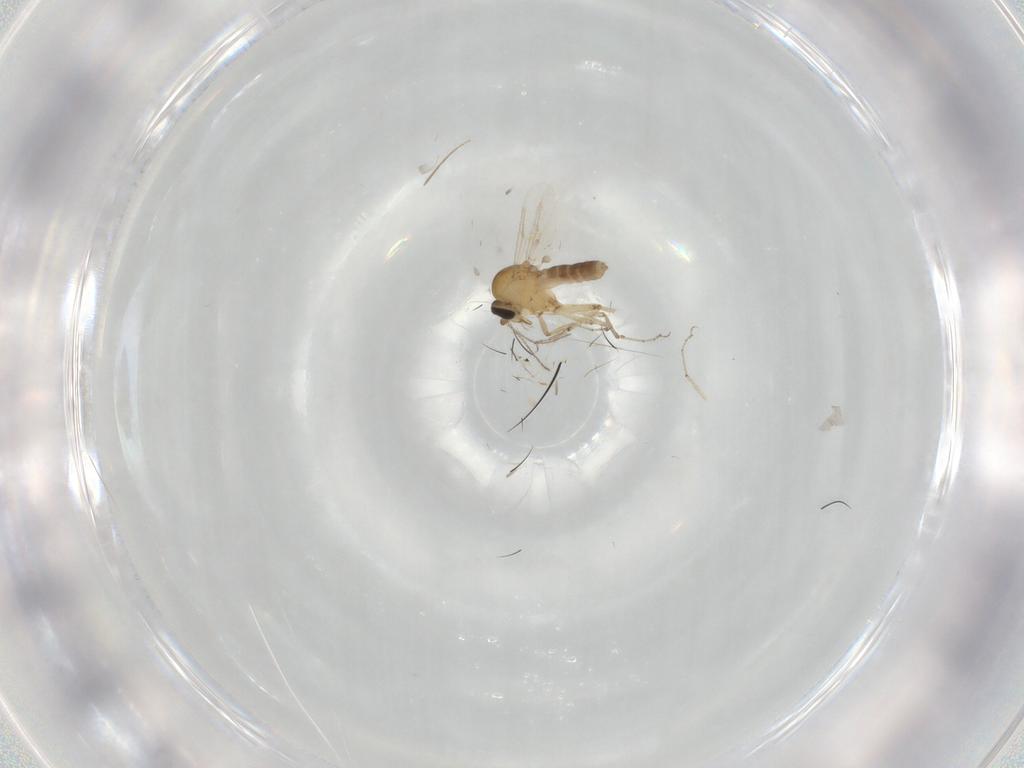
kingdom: Animalia
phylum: Arthropoda
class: Insecta
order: Diptera
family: Ceratopogonidae
